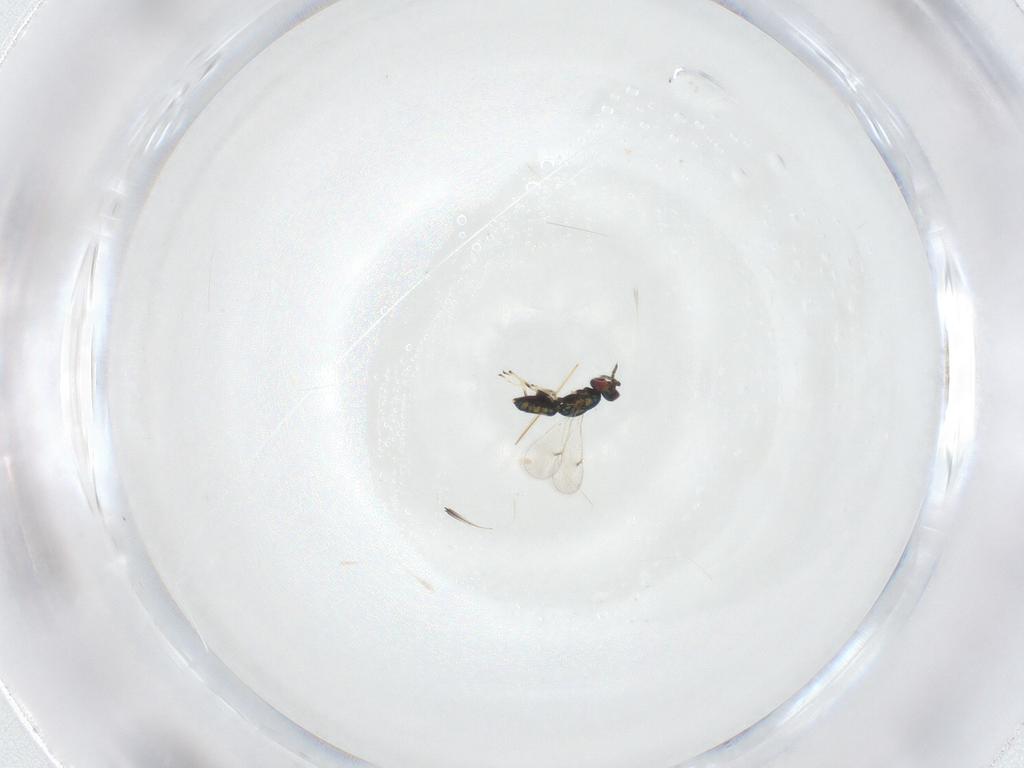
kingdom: Animalia
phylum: Arthropoda
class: Insecta
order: Hymenoptera
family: Eulophidae
